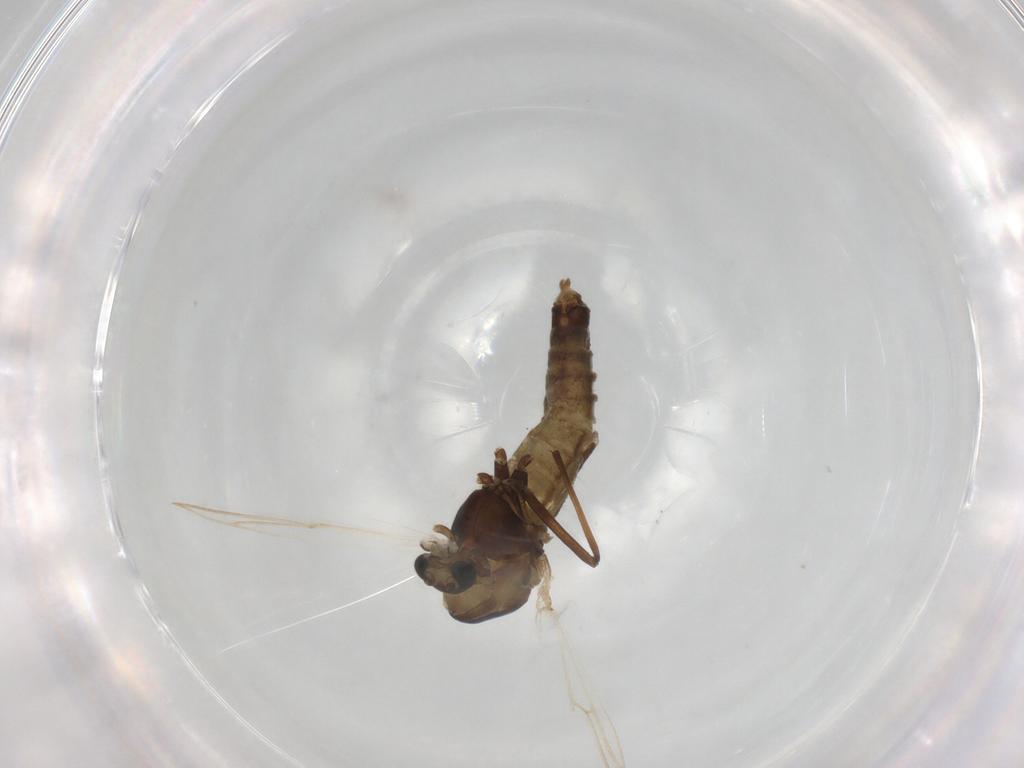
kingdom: Animalia
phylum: Arthropoda
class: Insecta
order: Diptera
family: Chironomidae
